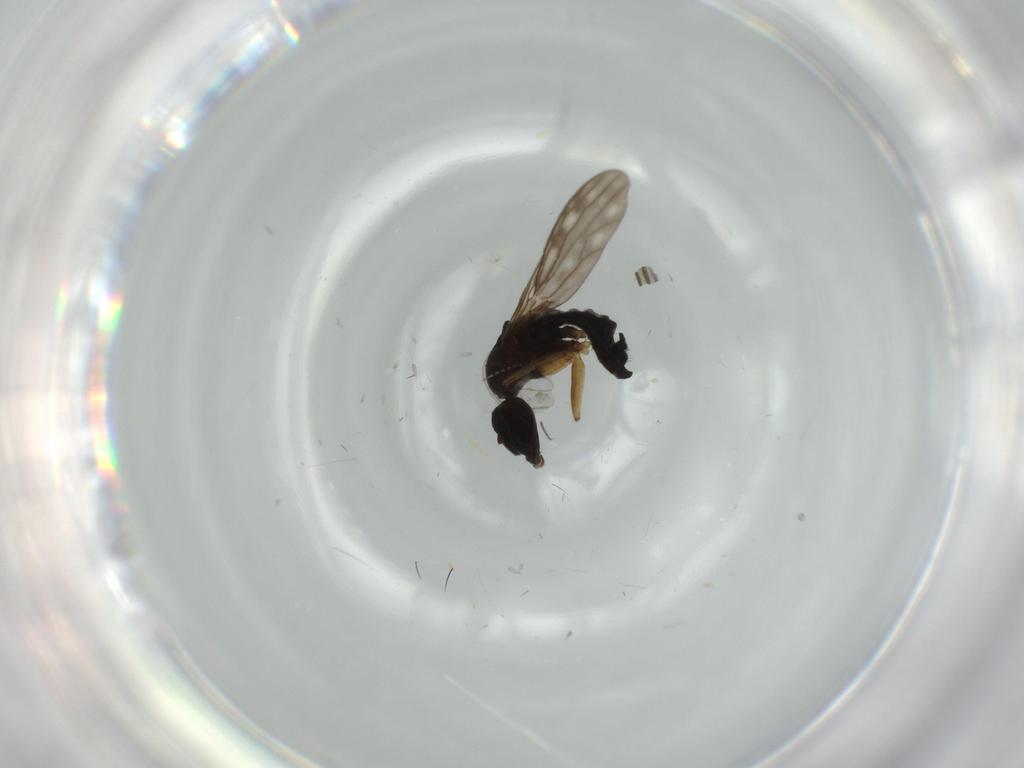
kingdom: Animalia
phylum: Arthropoda
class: Insecta
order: Diptera
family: Sciaridae
